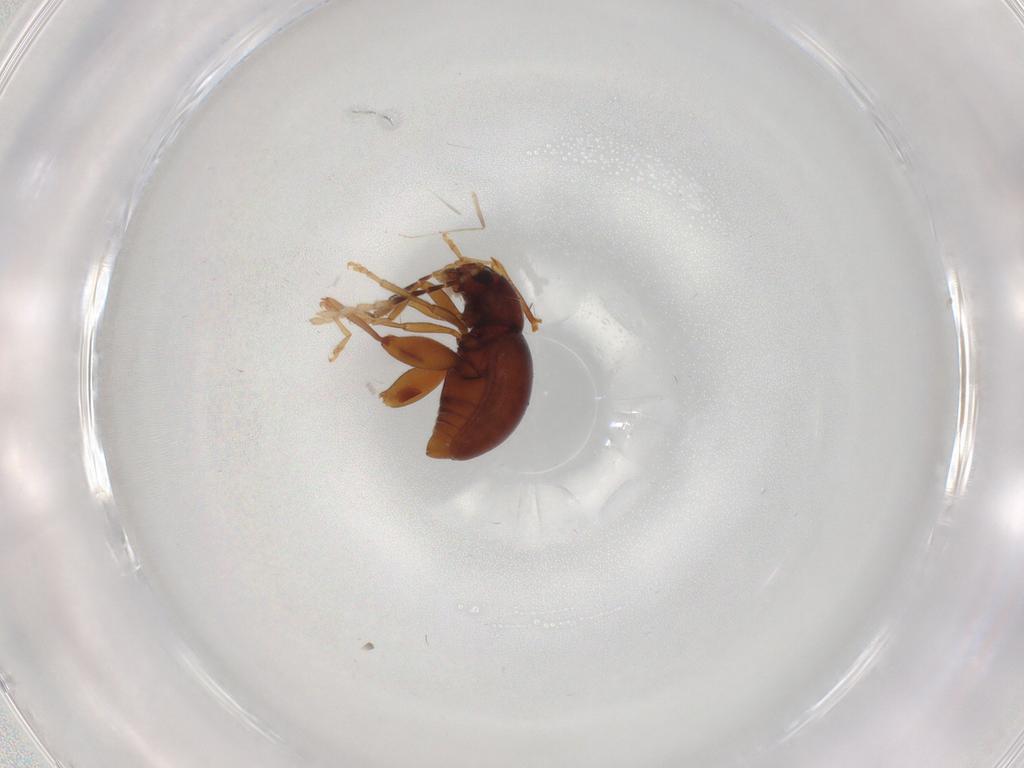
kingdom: Animalia
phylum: Arthropoda
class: Insecta
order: Coleoptera
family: Chrysomelidae
